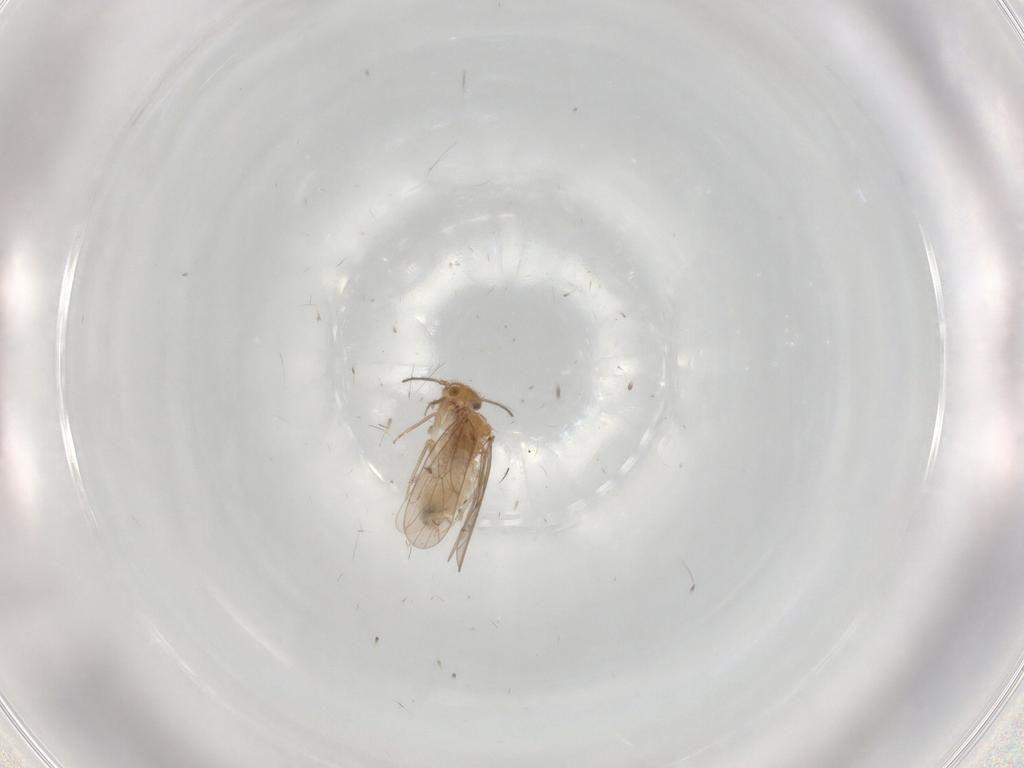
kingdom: Animalia
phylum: Arthropoda
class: Insecta
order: Psocodea
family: Ectopsocidae
